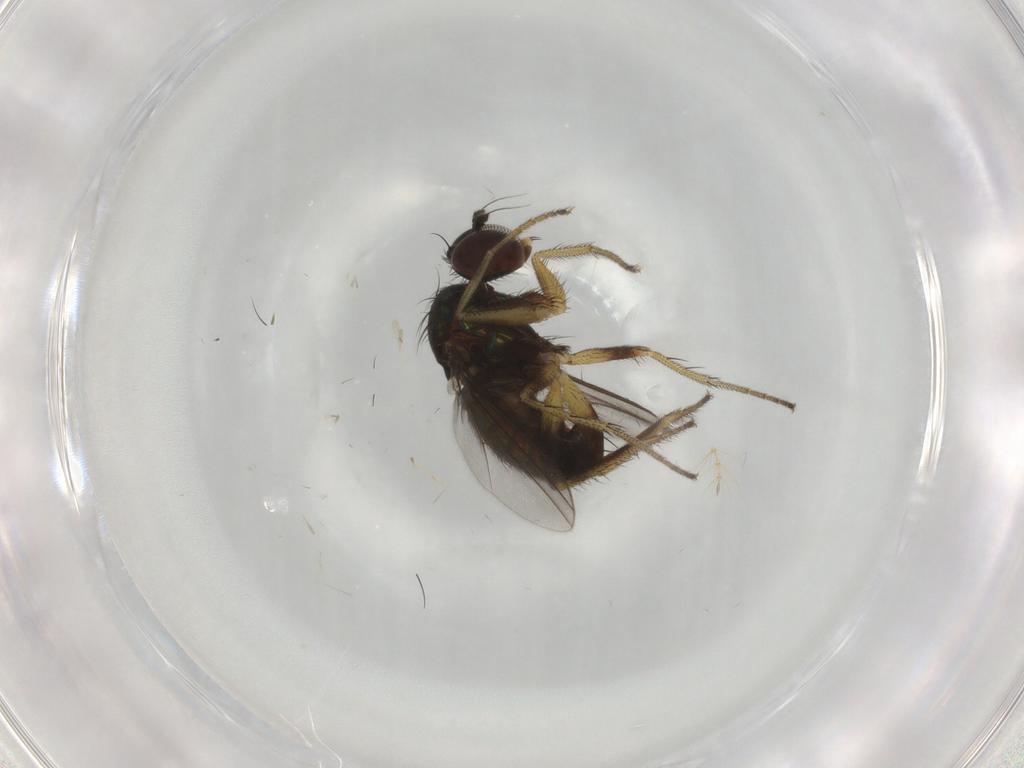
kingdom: Animalia
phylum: Arthropoda
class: Insecta
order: Diptera
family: Dolichopodidae
